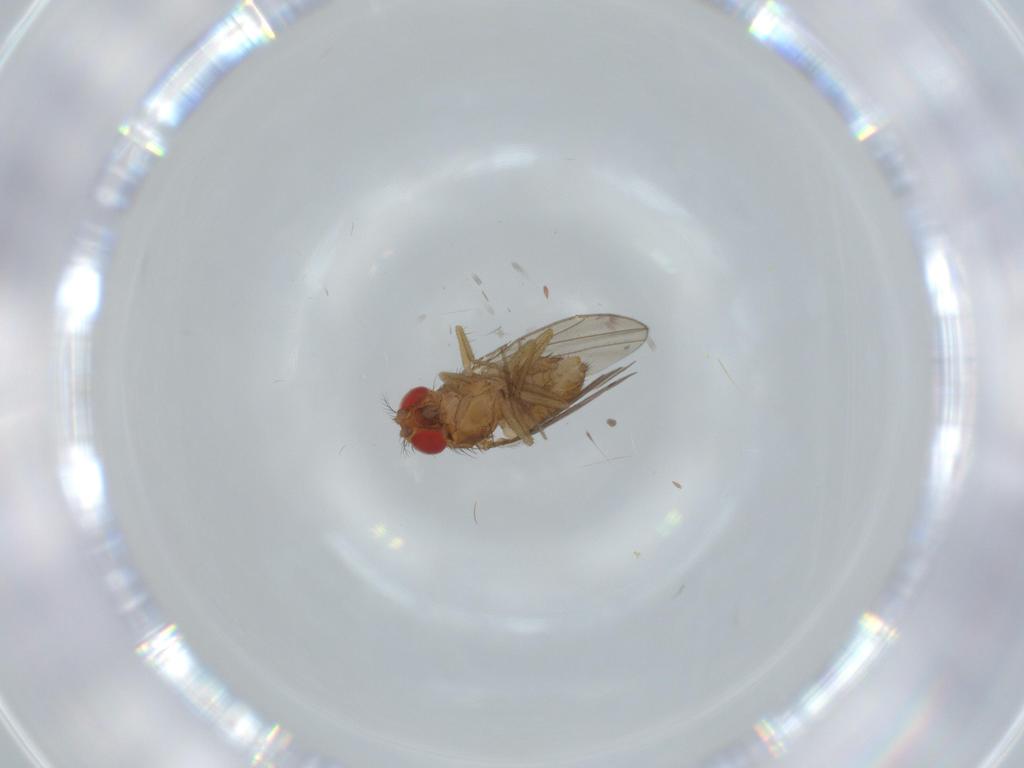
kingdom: Animalia
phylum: Arthropoda
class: Insecta
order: Diptera
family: Drosophilidae
